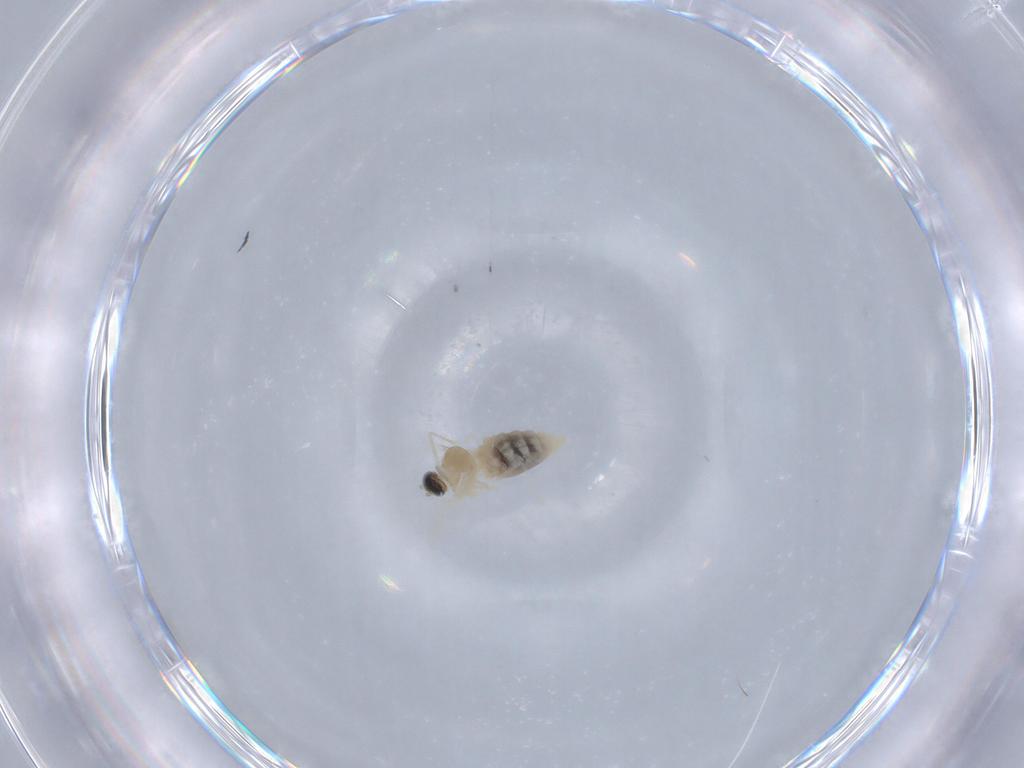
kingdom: Animalia
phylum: Arthropoda
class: Insecta
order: Diptera
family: Cecidomyiidae
